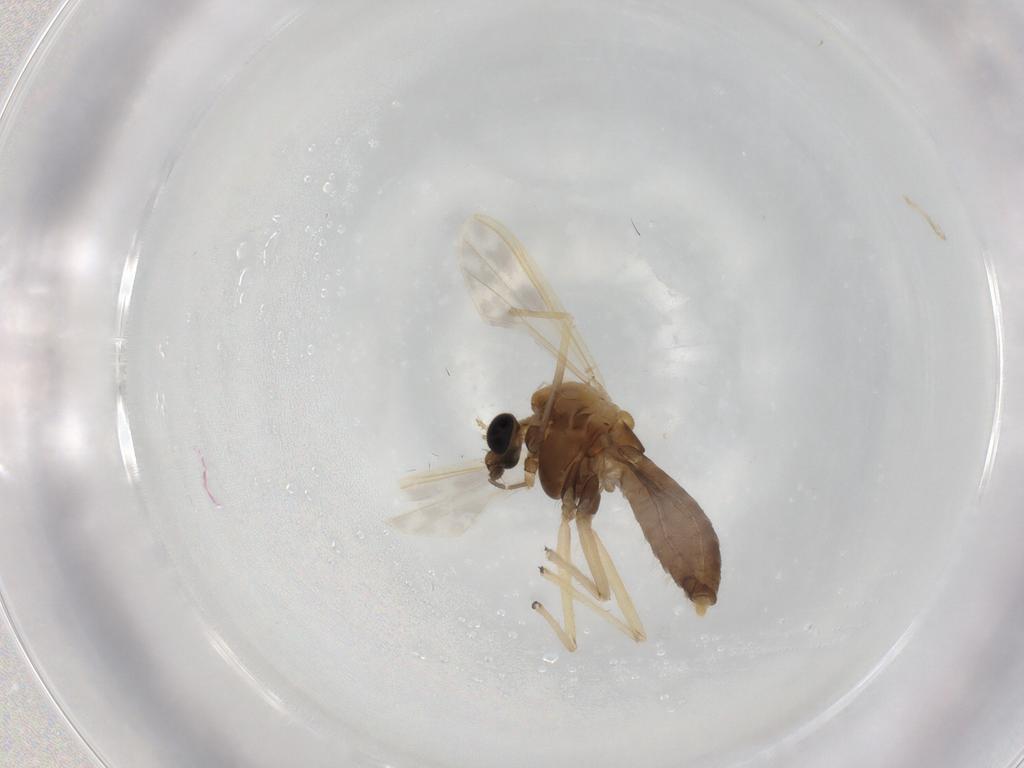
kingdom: Animalia
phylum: Arthropoda
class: Insecta
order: Diptera
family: Chironomidae
